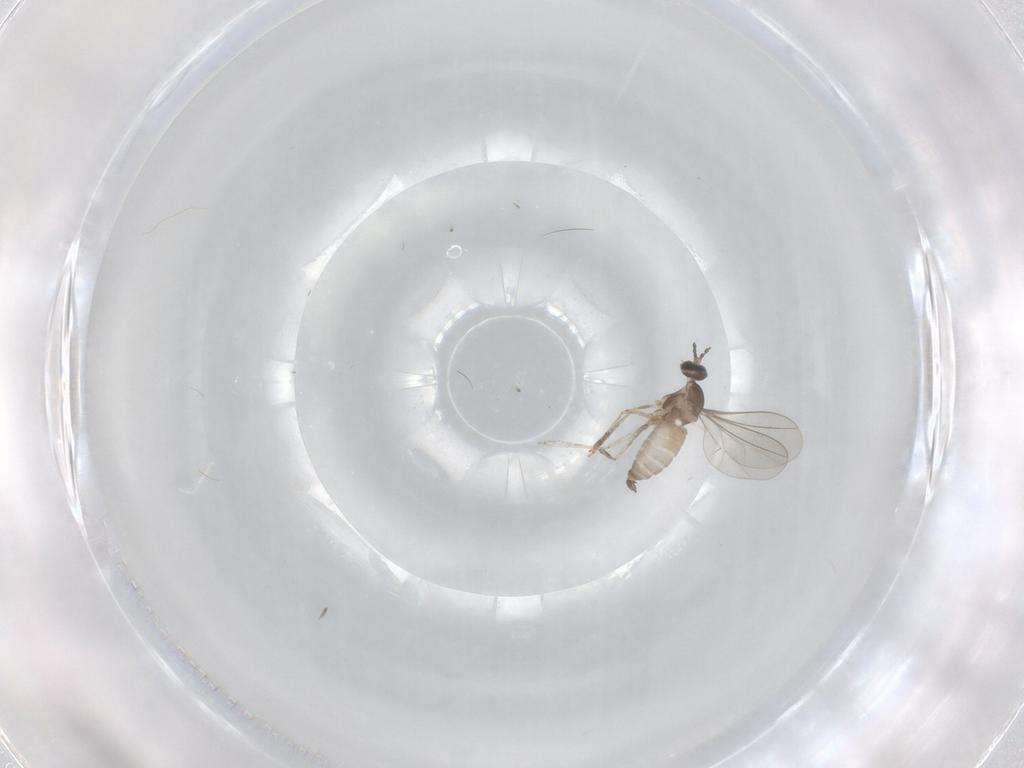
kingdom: Animalia
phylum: Arthropoda
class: Insecta
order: Diptera
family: Cecidomyiidae
